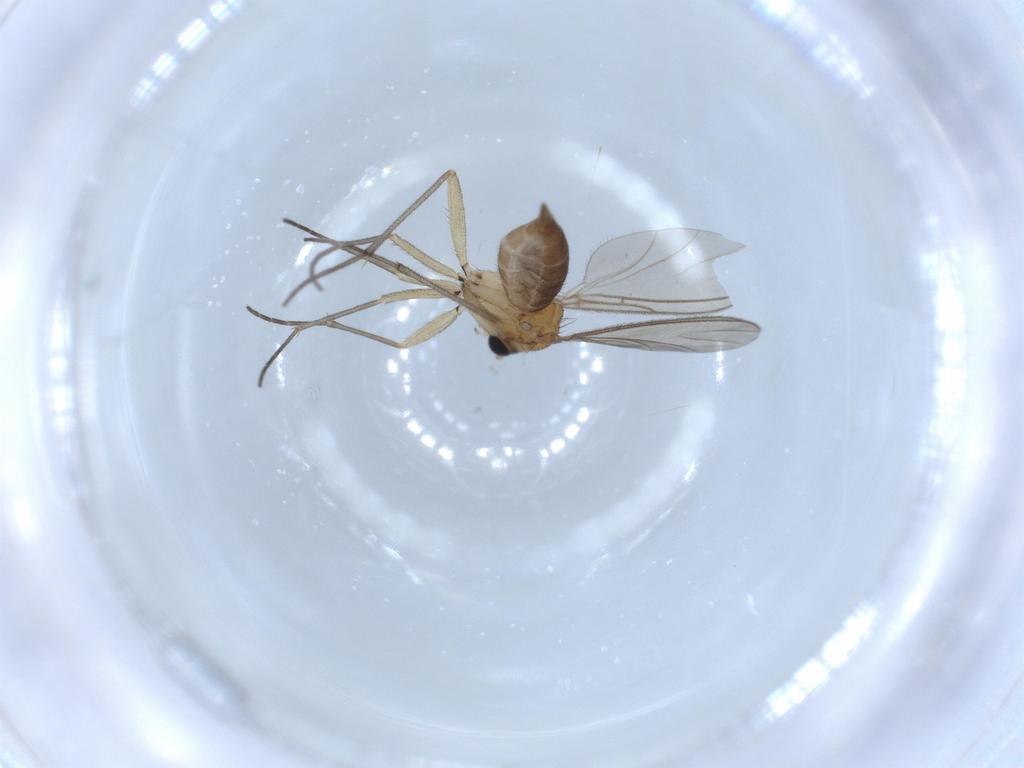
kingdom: Animalia
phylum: Arthropoda
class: Insecta
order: Diptera
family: Sciaridae
